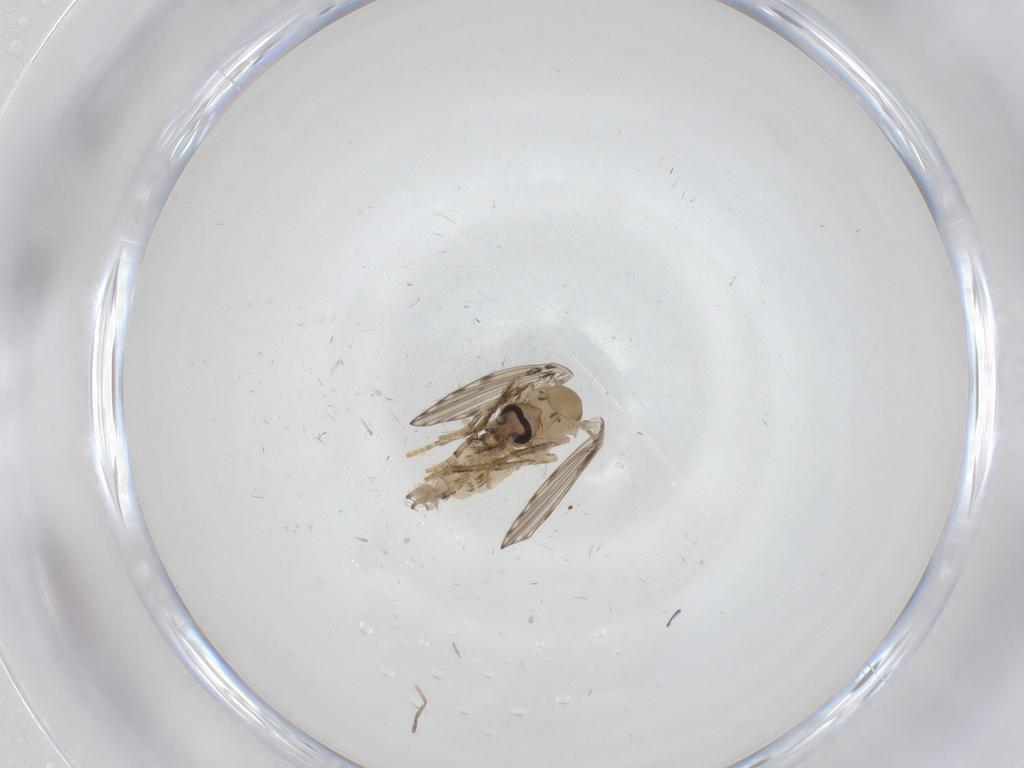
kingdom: Animalia
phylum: Arthropoda
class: Insecta
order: Diptera
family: Psychodidae
